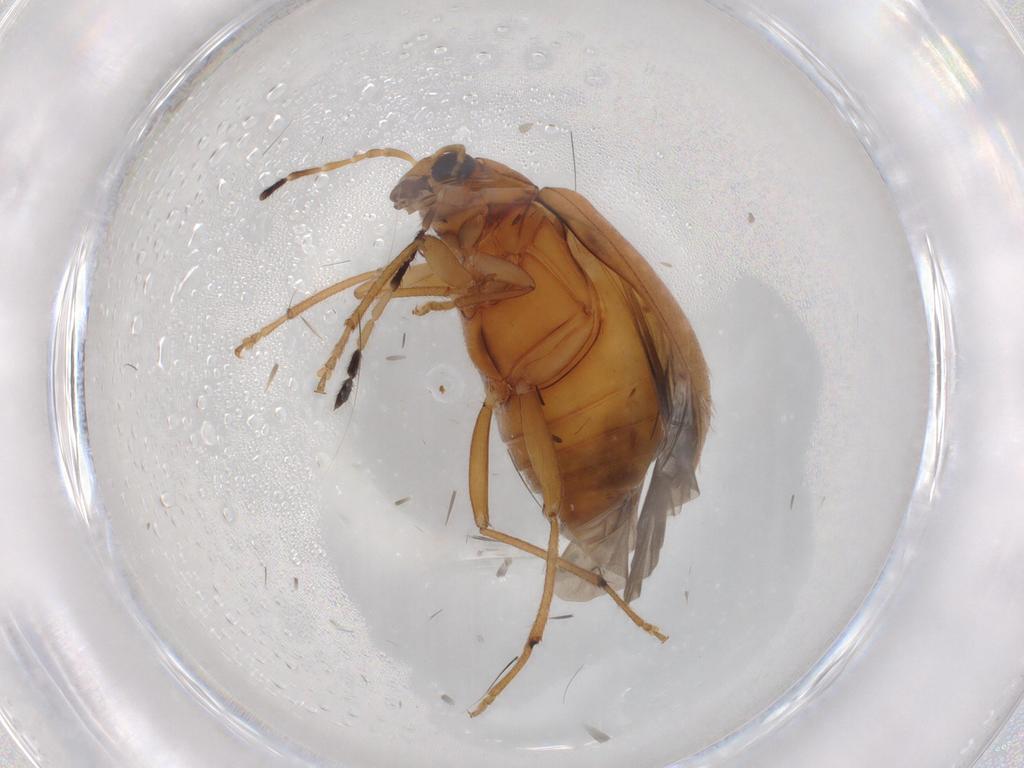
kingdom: Animalia
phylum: Arthropoda
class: Insecta
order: Coleoptera
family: Chrysomelidae
